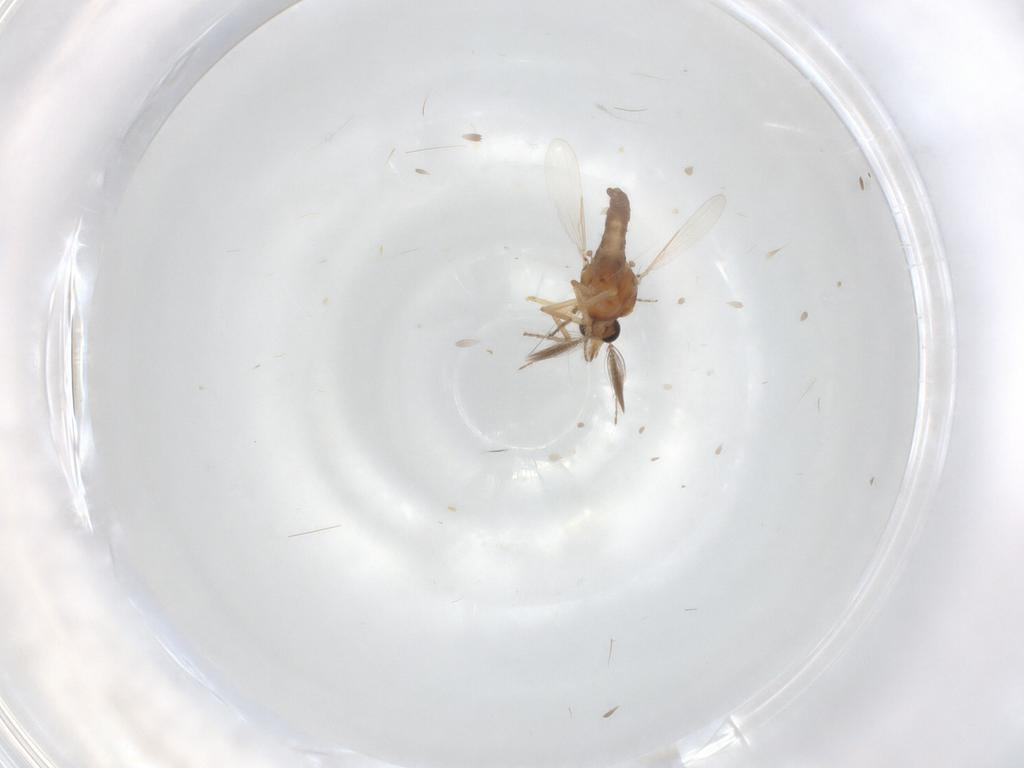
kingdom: Animalia
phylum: Arthropoda
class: Insecta
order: Diptera
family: Ceratopogonidae
